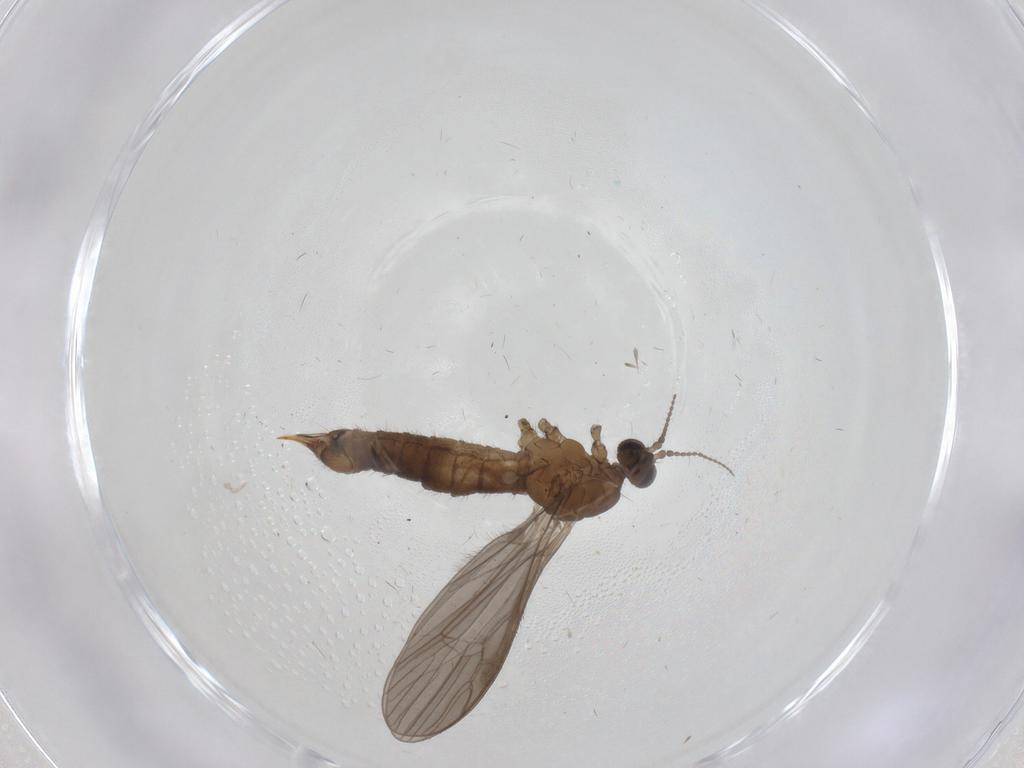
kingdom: Animalia
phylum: Arthropoda
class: Insecta
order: Diptera
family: Limoniidae
